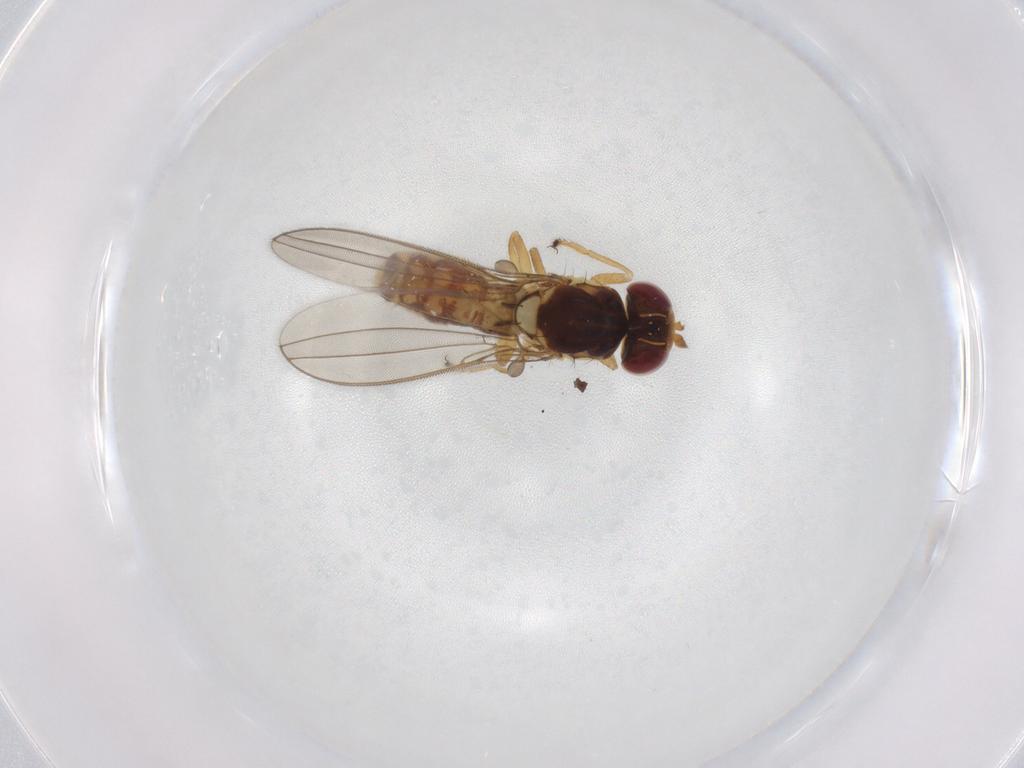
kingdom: Animalia
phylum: Arthropoda
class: Insecta
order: Diptera
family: Asteiidae
